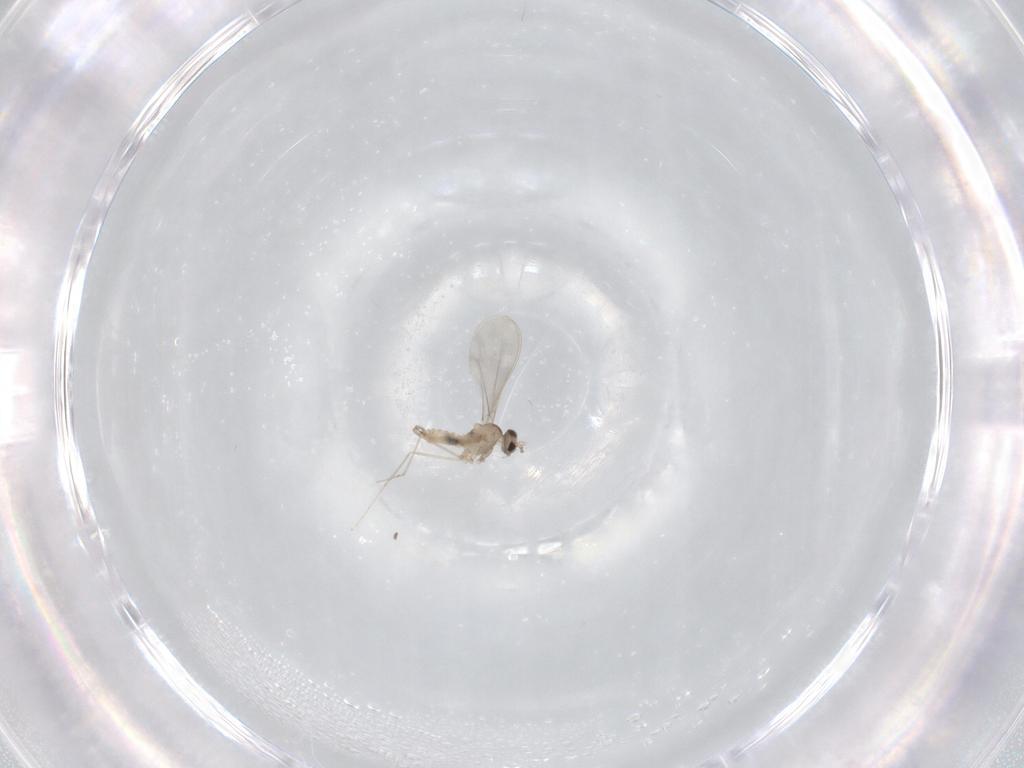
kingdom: Animalia
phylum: Arthropoda
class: Insecta
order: Diptera
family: Cecidomyiidae
